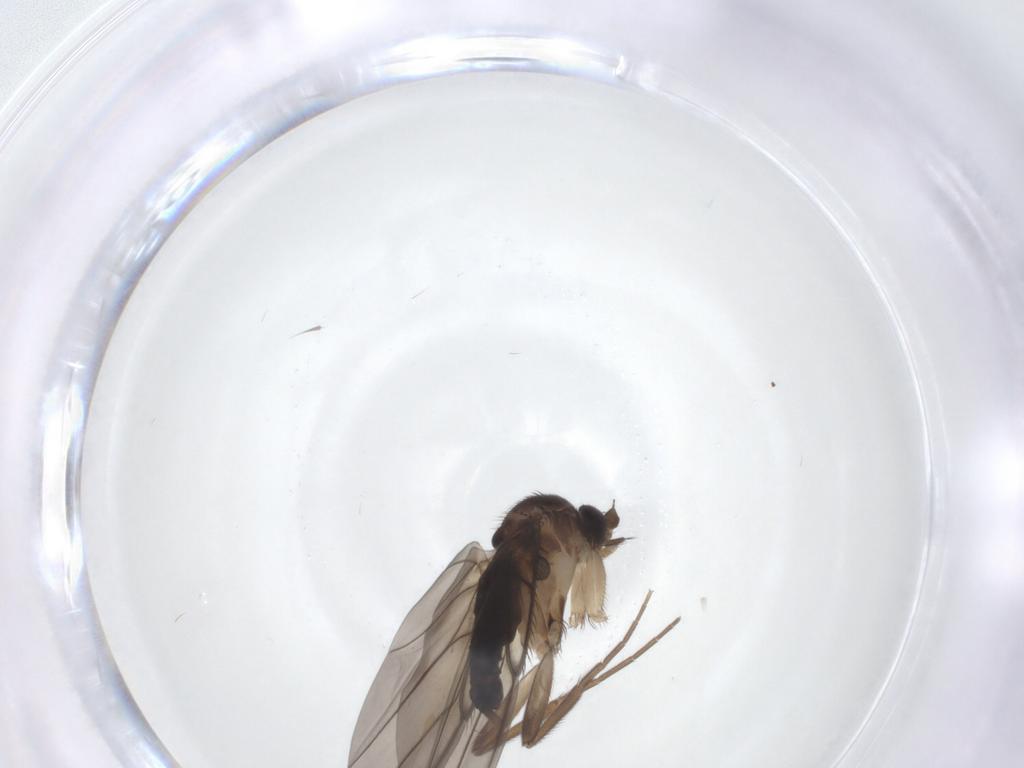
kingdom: Animalia
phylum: Arthropoda
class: Insecta
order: Diptera
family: Phoridae
